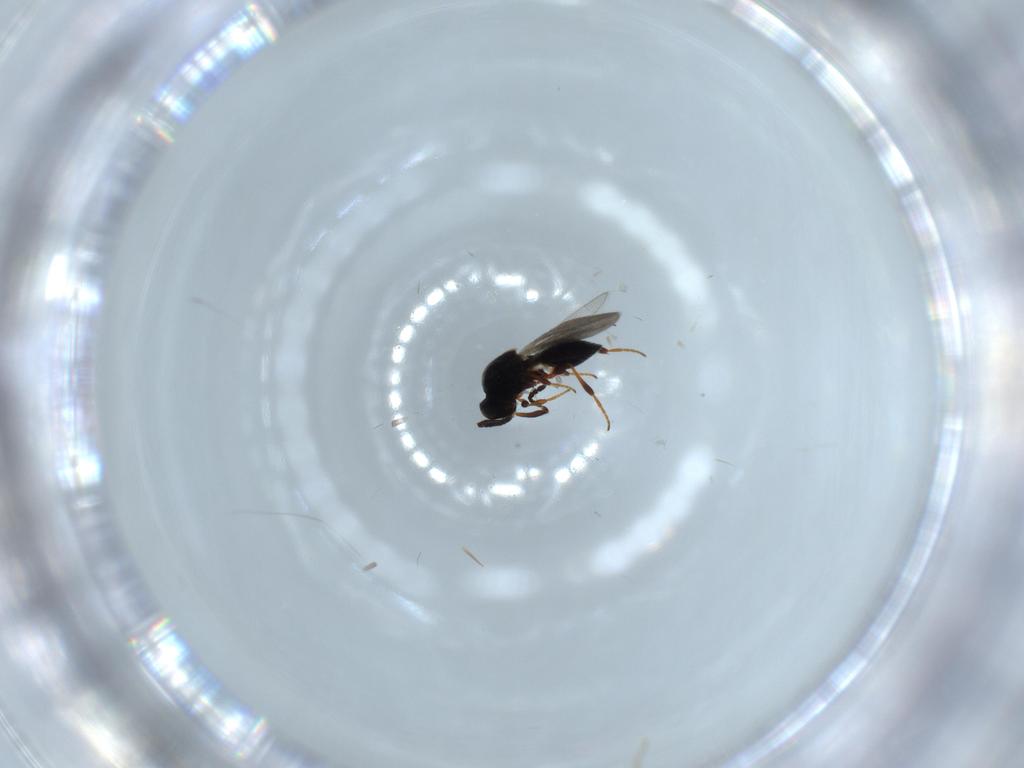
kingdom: Animalia
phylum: Arthropoda
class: Insecta
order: Hymenoptera
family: Platygastridae
